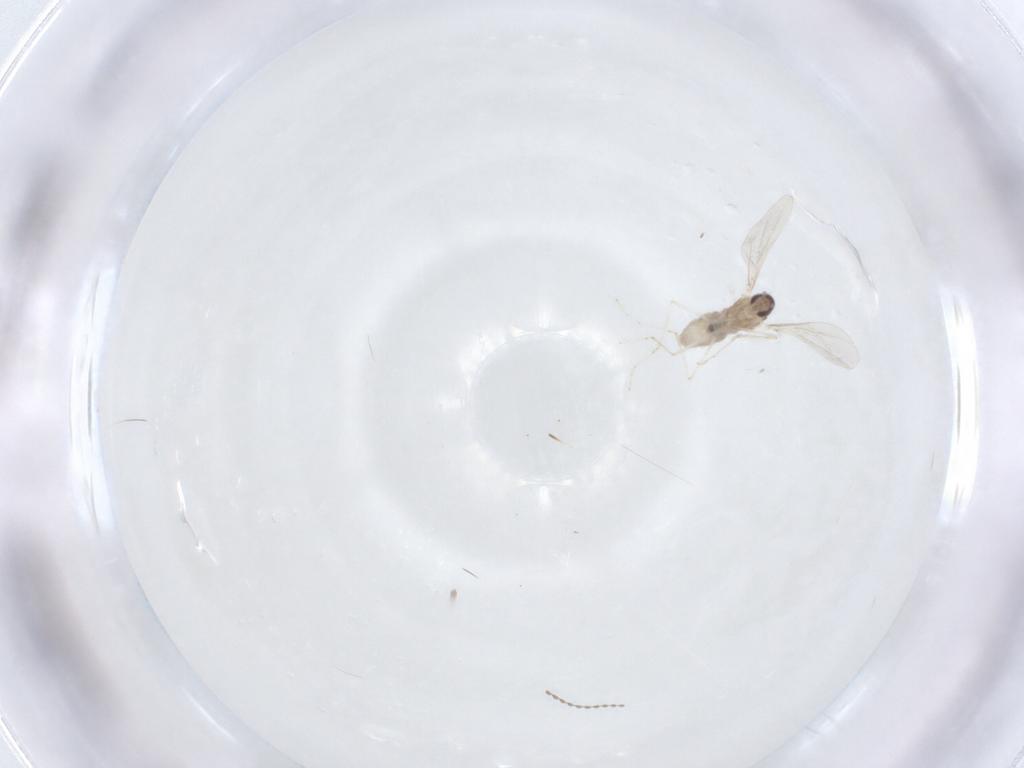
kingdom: Animalia
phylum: Arthropoda
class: Insecta
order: Diptera
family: Cecidomyiidae
